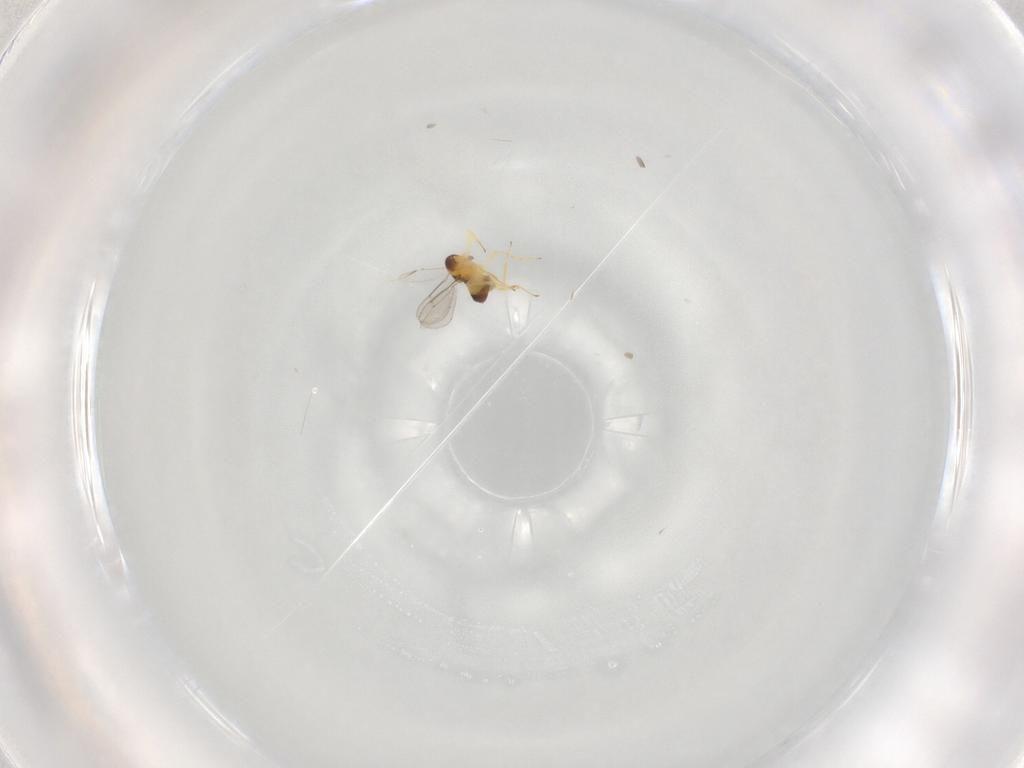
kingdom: Animalia
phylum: Arthropoda
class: Insecta
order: Hymenoptera
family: Aphelinidae
